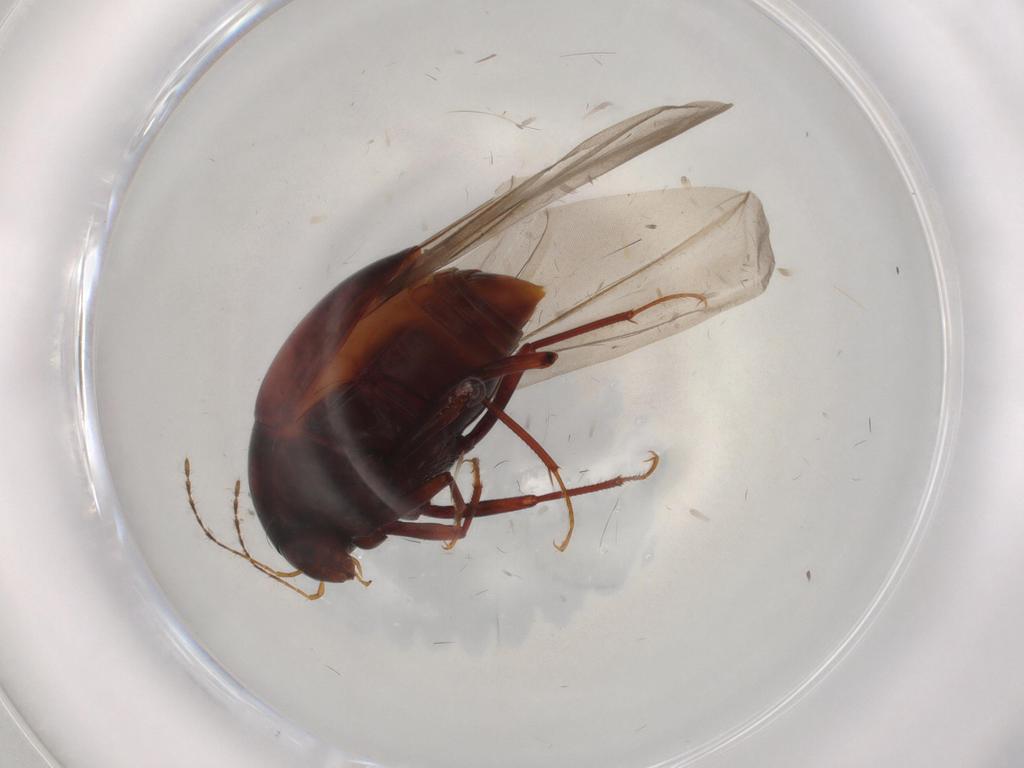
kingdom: Animalia
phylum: Arthropoda
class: Insecta
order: Coleoptera
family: Staphylinidae
